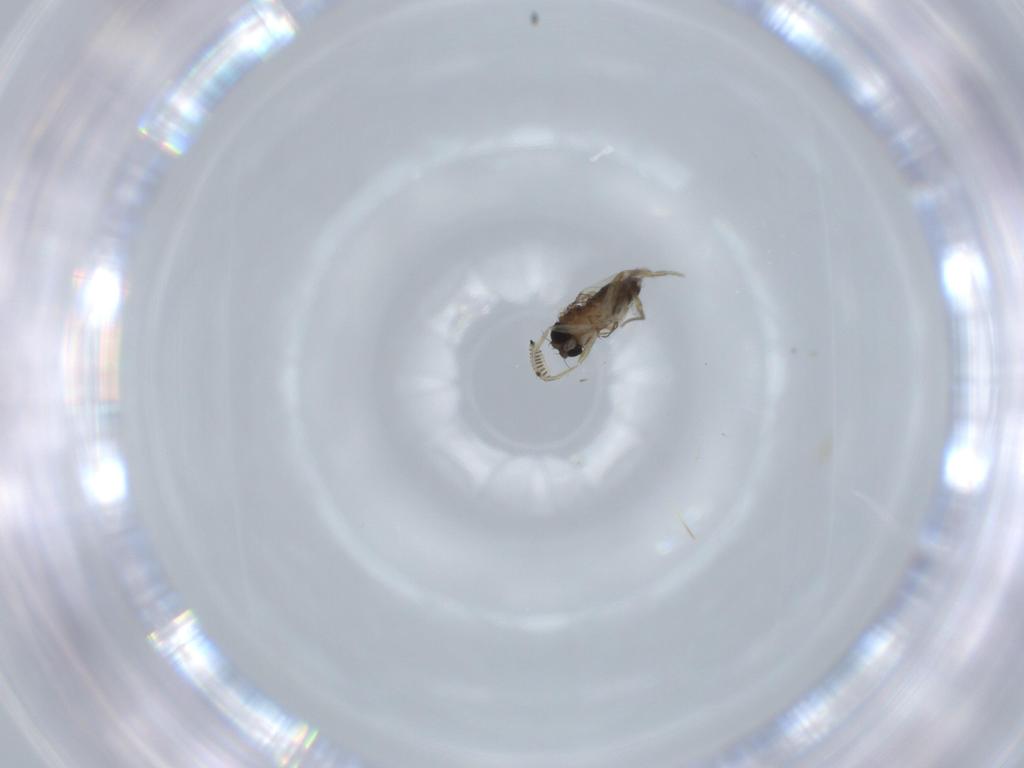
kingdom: Animalia
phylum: Arthropoda
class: Insecta
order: Diptera
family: Phoridae
